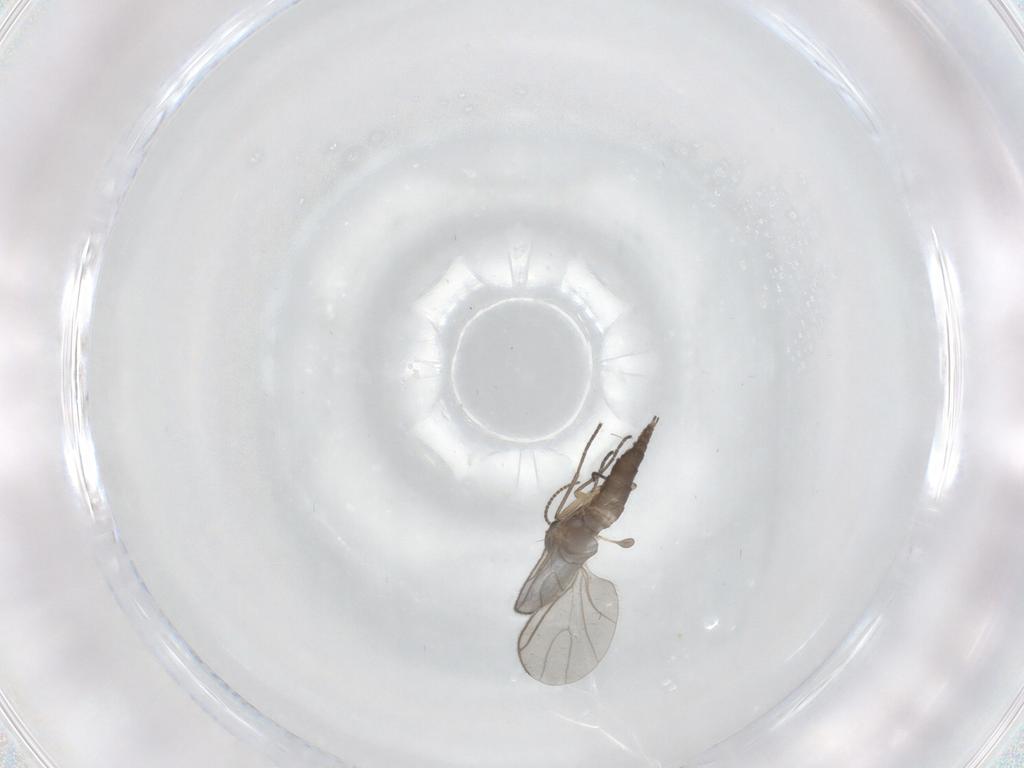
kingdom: Animalia
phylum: Arthropoda
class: Insecta
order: Diptera
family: Sciaridae
